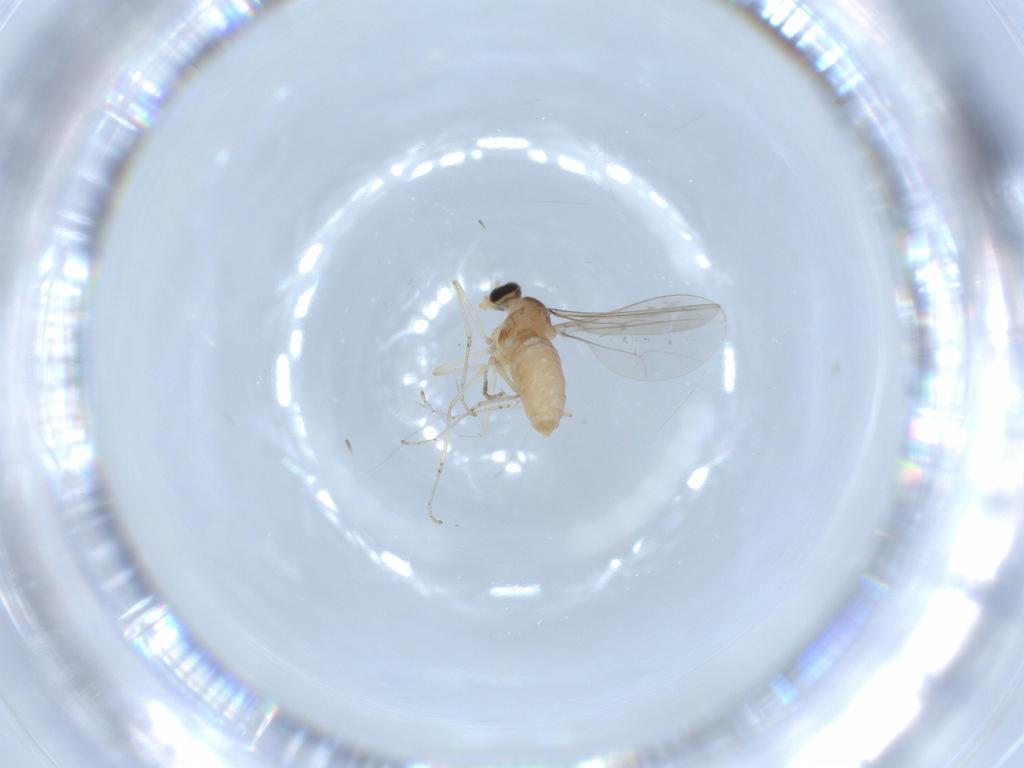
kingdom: Animalia
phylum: Arthropoda
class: Insecta
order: Diptera
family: Cecidomyiidae
